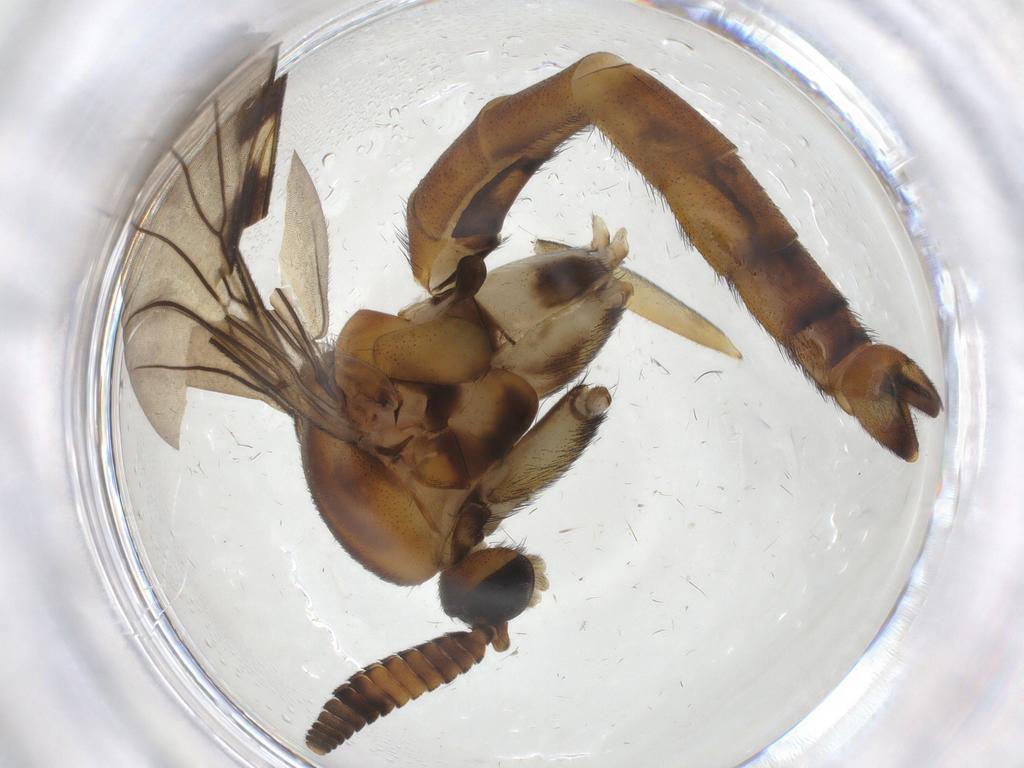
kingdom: Animalia
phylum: Arthropoda
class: Insecta
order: Diptera
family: Keroplatidae
